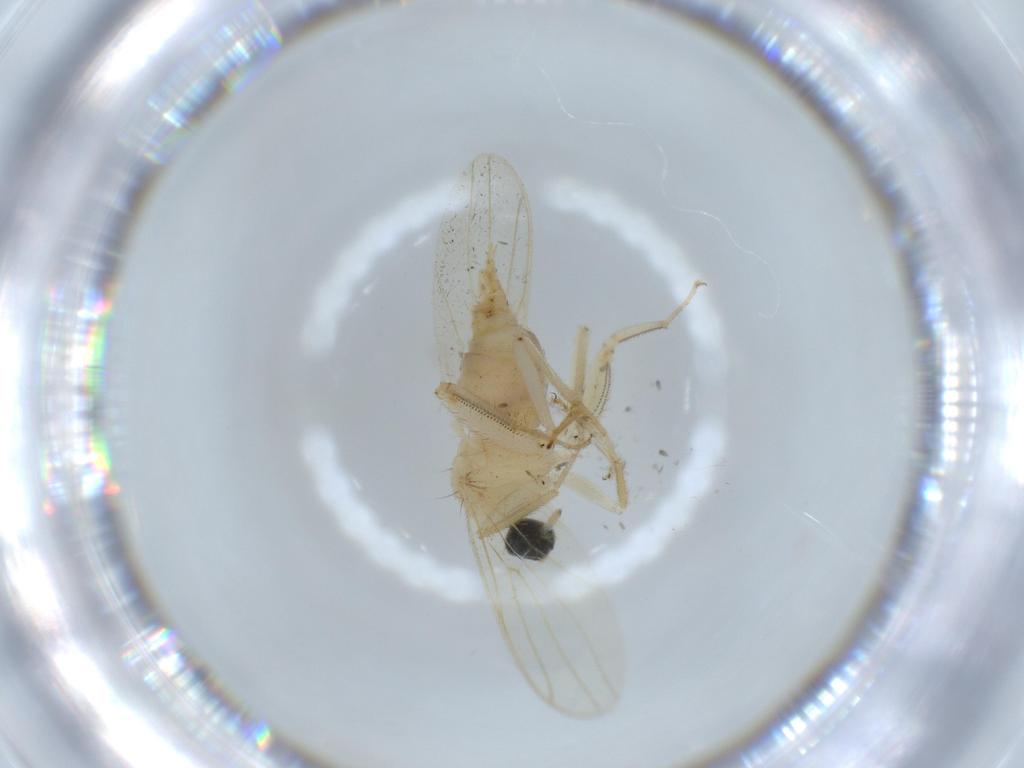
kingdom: Animalia
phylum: Arthropoda
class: Insecta
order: Diptera
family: Hybotidae
